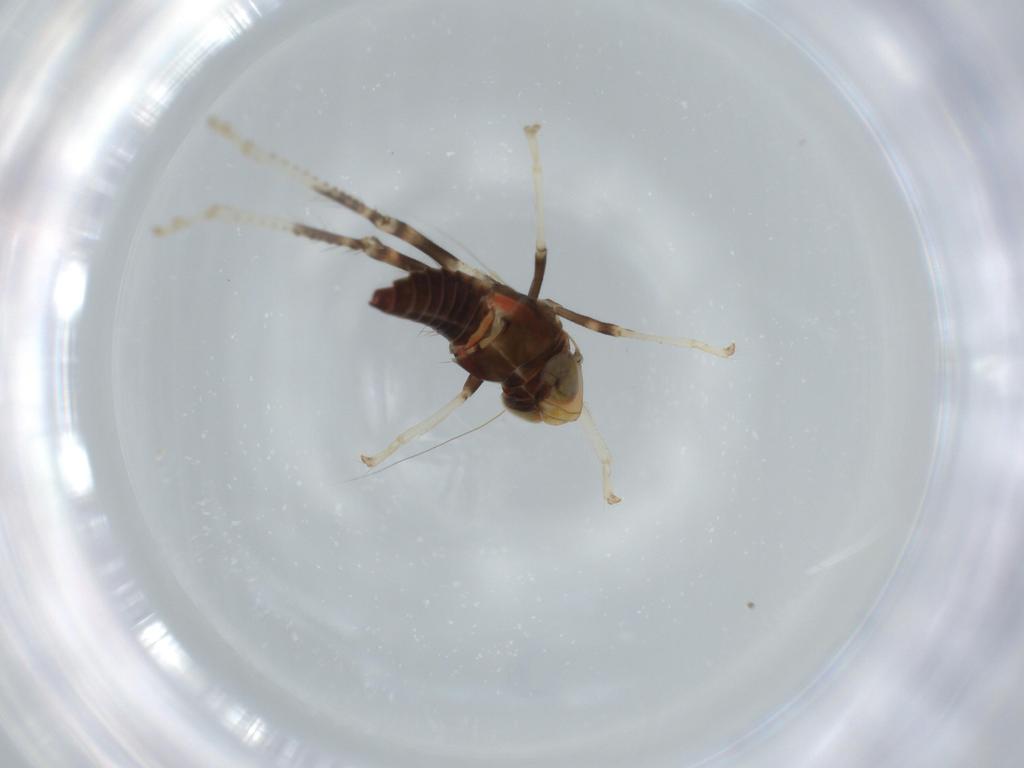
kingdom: Animalia
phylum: Arthropoda
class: Insecta
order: Hemiptera
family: Cicadellidae
